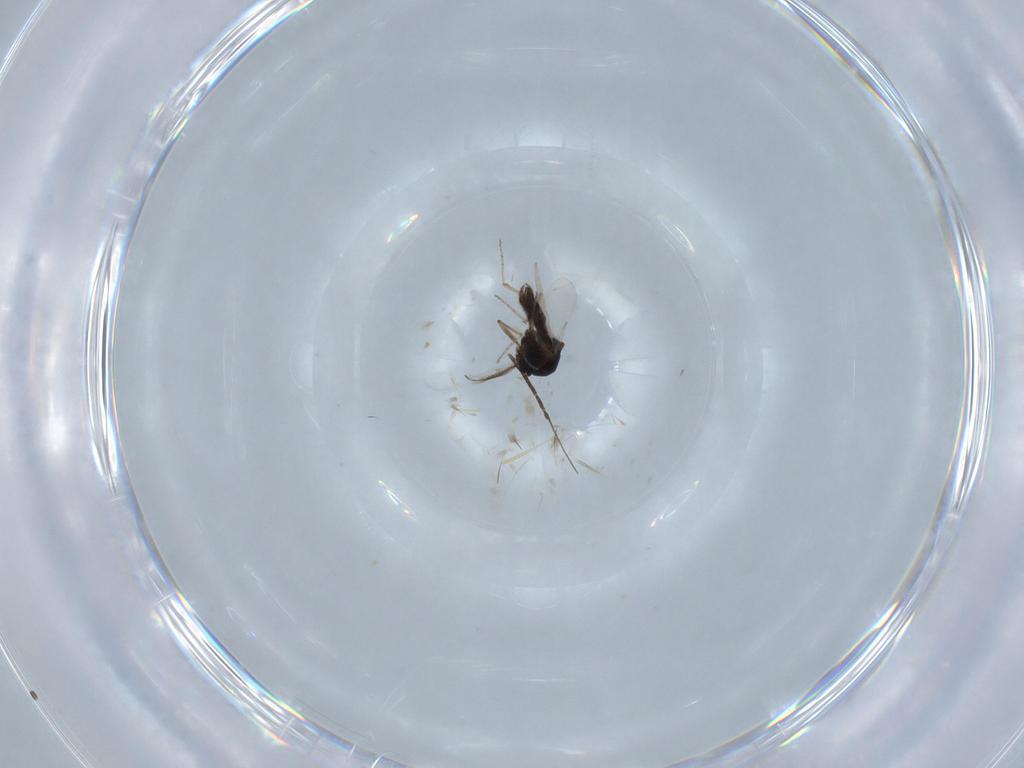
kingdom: Animalia
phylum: Arthropoda
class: Insecta
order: Diptera
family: Ceratopogonidae
